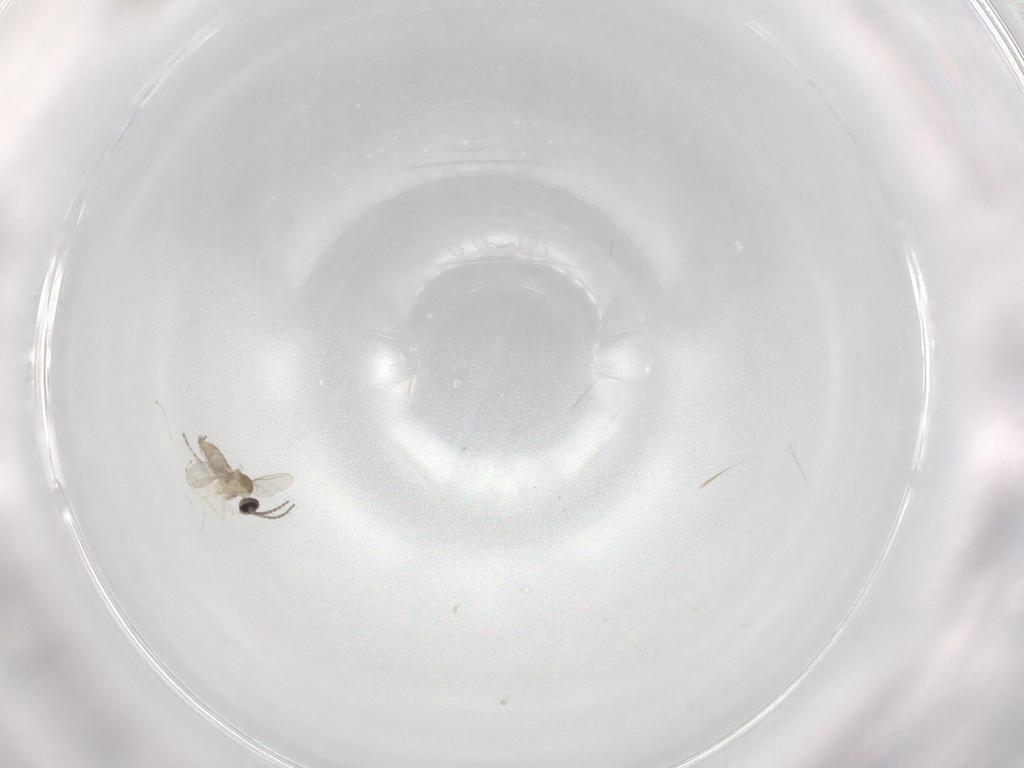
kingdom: Animalia
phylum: Arthropoda
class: Insecta
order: Diptera
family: Cecidomyiidae
